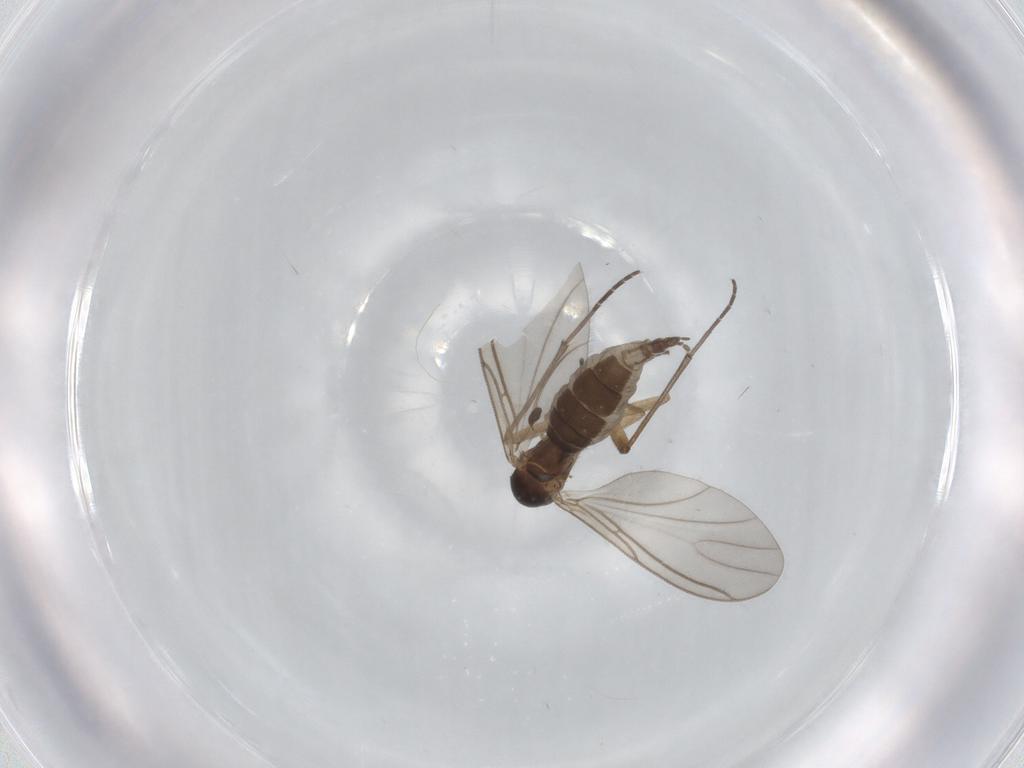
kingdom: Animalia
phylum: Arthropoda
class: Insecta
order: Diptera
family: Sciaridae
